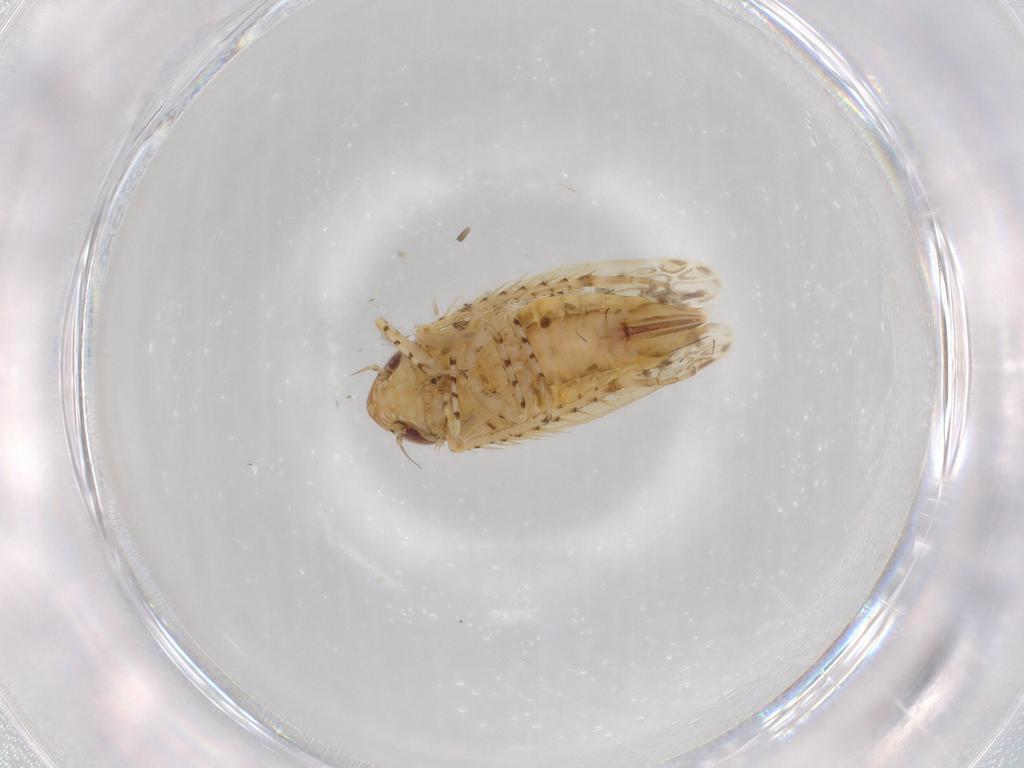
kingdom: Animalia
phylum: Arthropoda
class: Insecta
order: Hemiptera
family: Cicadellidae
